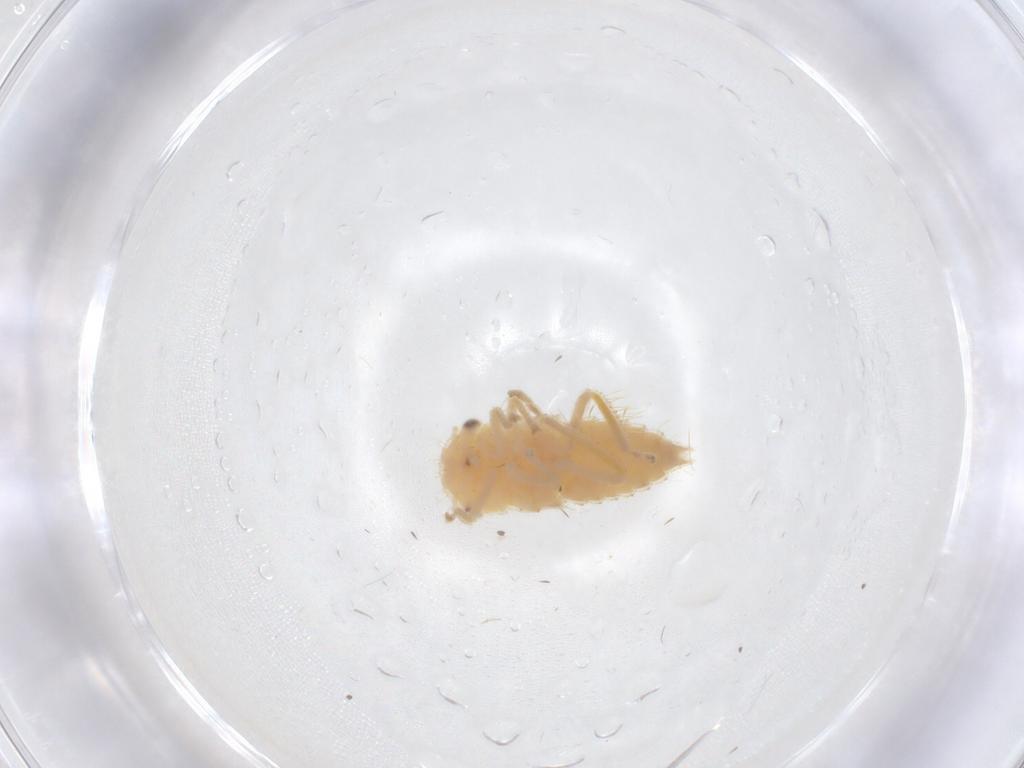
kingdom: Animalia
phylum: Arthropoda
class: Insecta
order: Hemiptera
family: Cicadellidae
